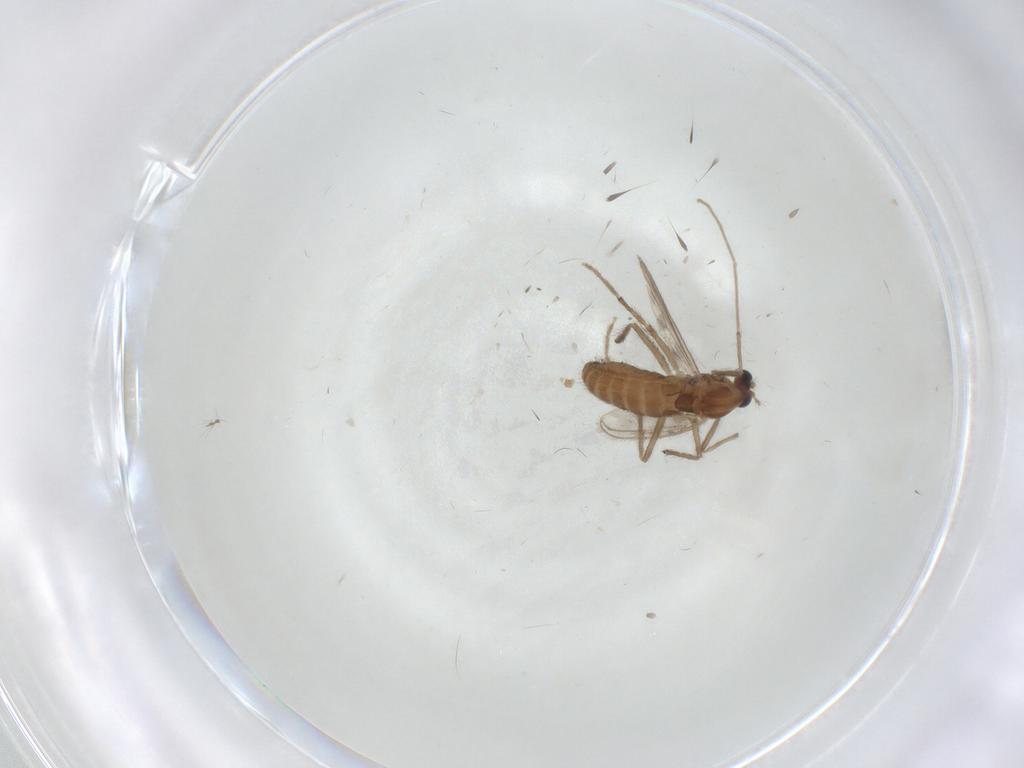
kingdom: Animalia
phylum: Arthropoda
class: Insecta
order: Diptera
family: Chironomidae
